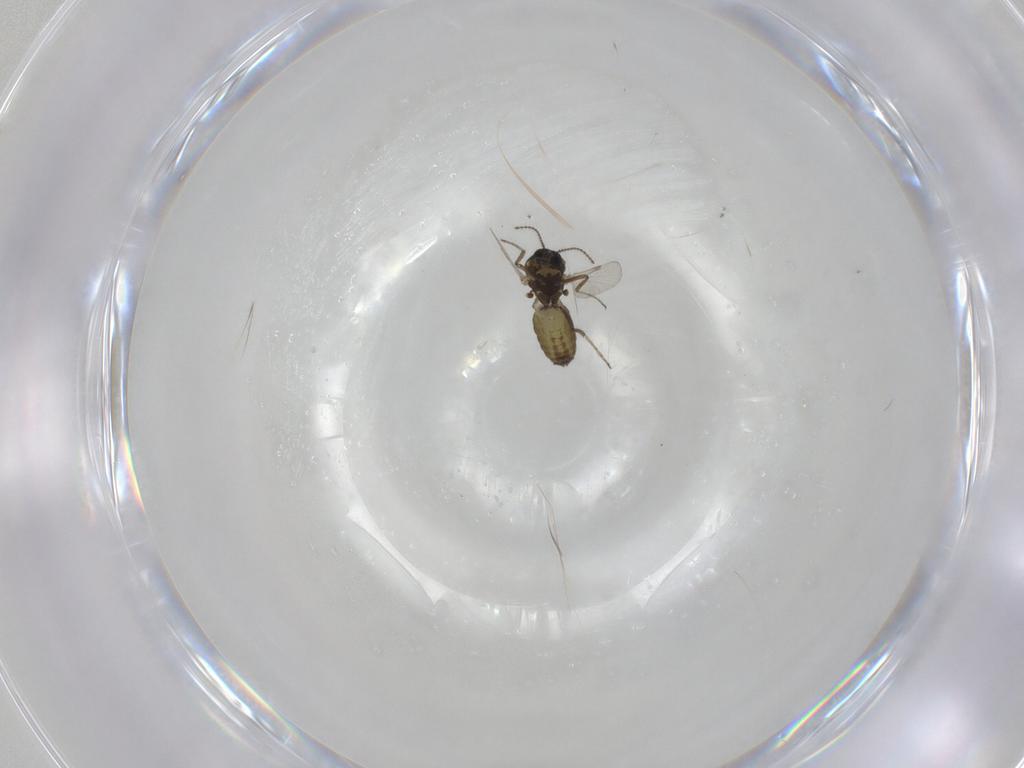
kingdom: Animalia
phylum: Arthropoda
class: Insecta
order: Diptera
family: Ceratopogonidae
